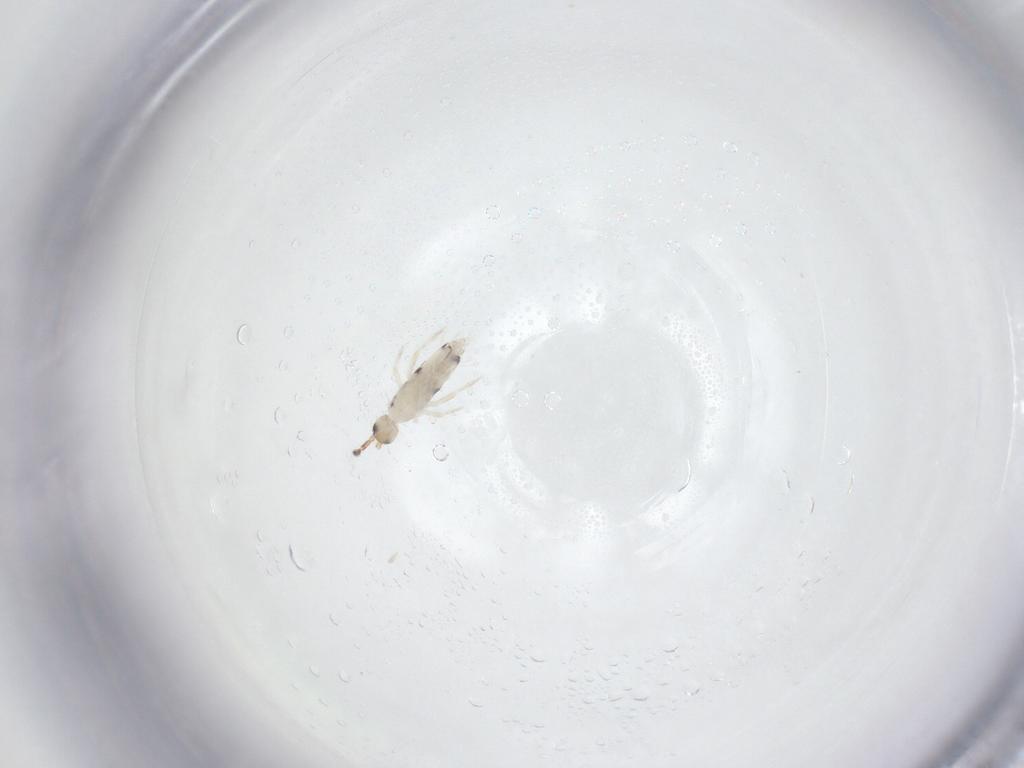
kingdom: Animalia
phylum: Arthropoda
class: Collembola
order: Entomobryomorpha
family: Entomobryidae
